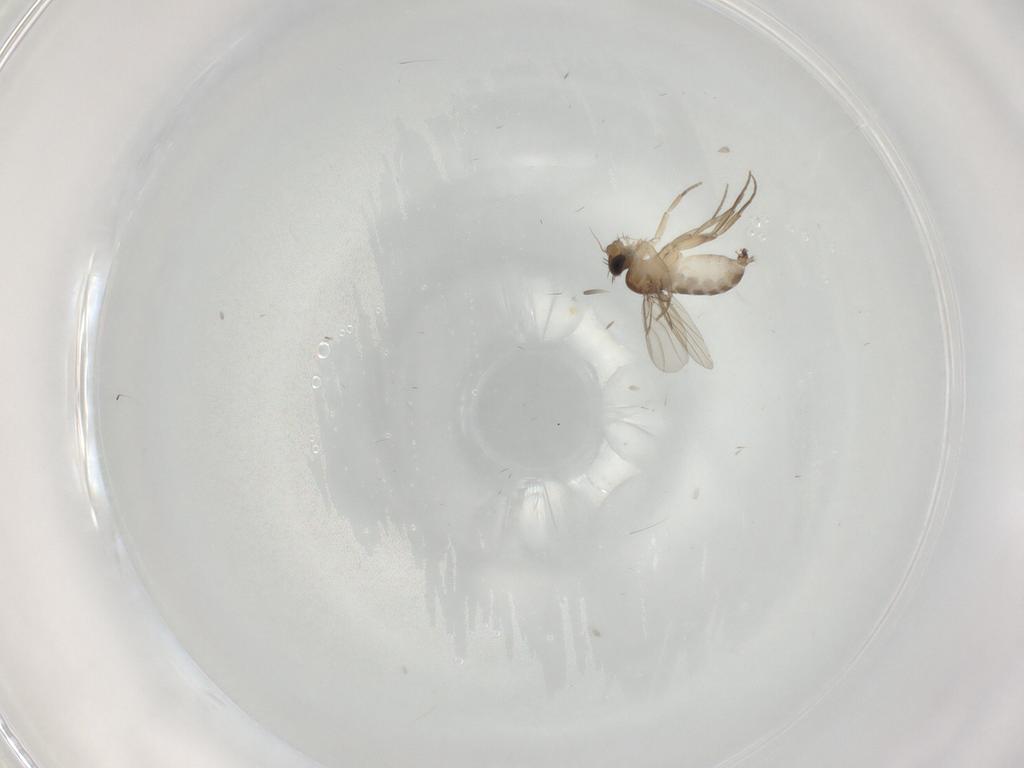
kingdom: Animalia
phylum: Arthropoda
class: Insecta
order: Diptera
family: Phoridae
